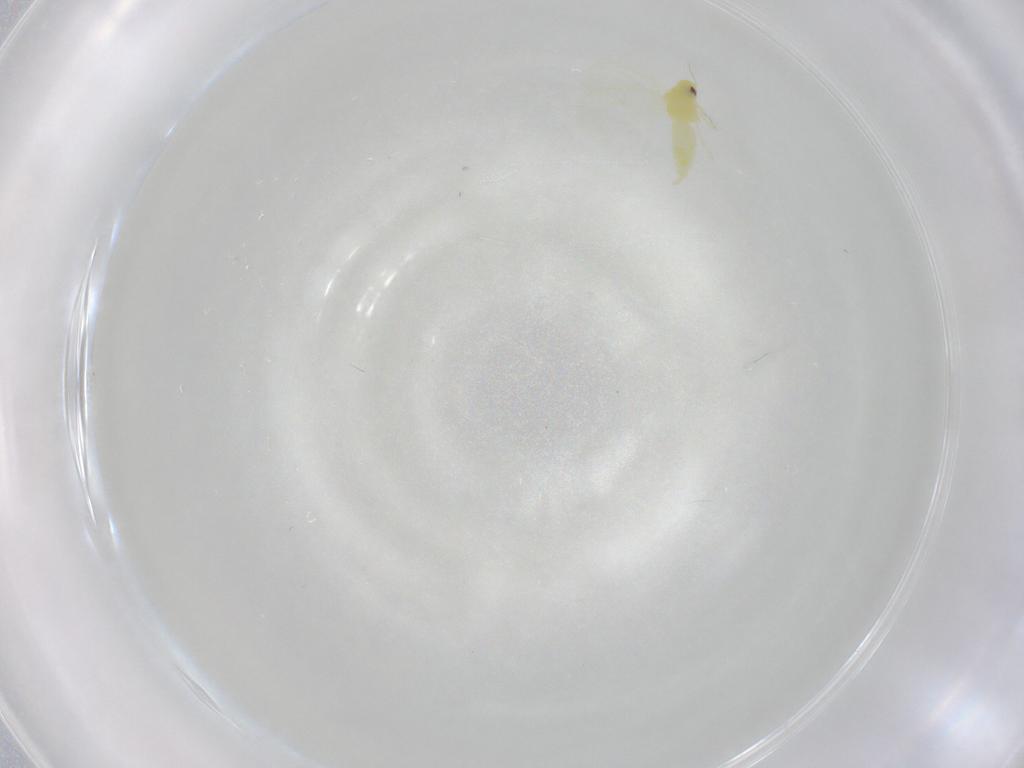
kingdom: Animalia
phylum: Arthropoda
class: Insecta
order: Hemiptera
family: Aleyrodidae
